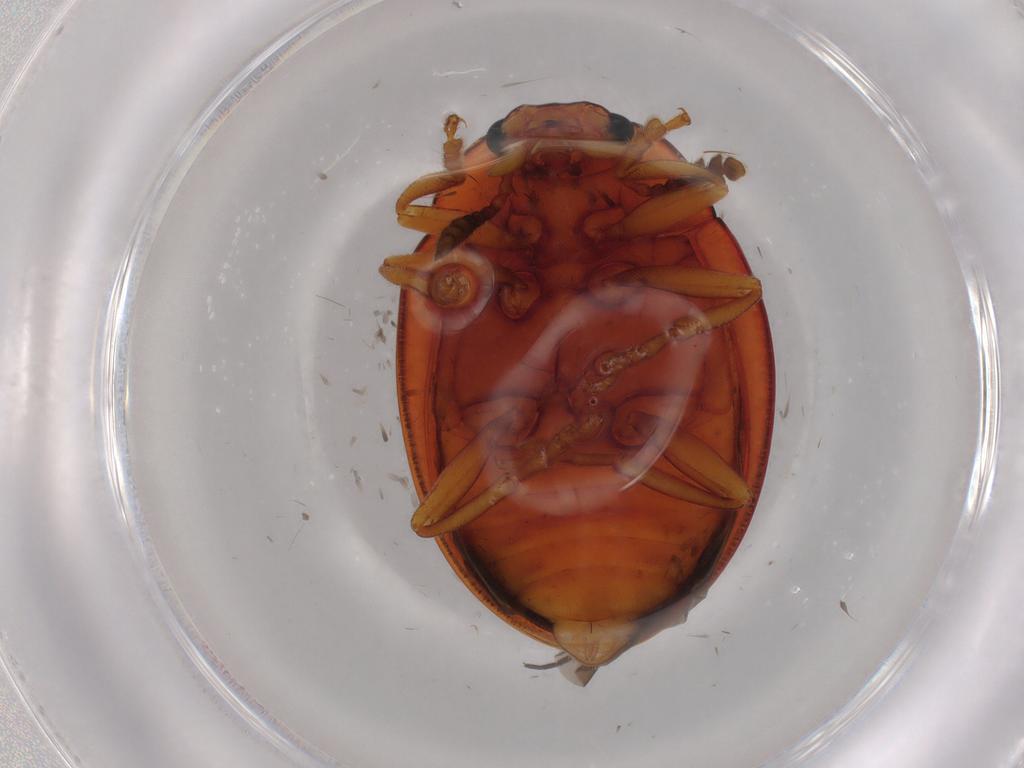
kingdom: Animalia
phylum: Arthropoda
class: Insecta
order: Coleoptera
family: Erotylidae
